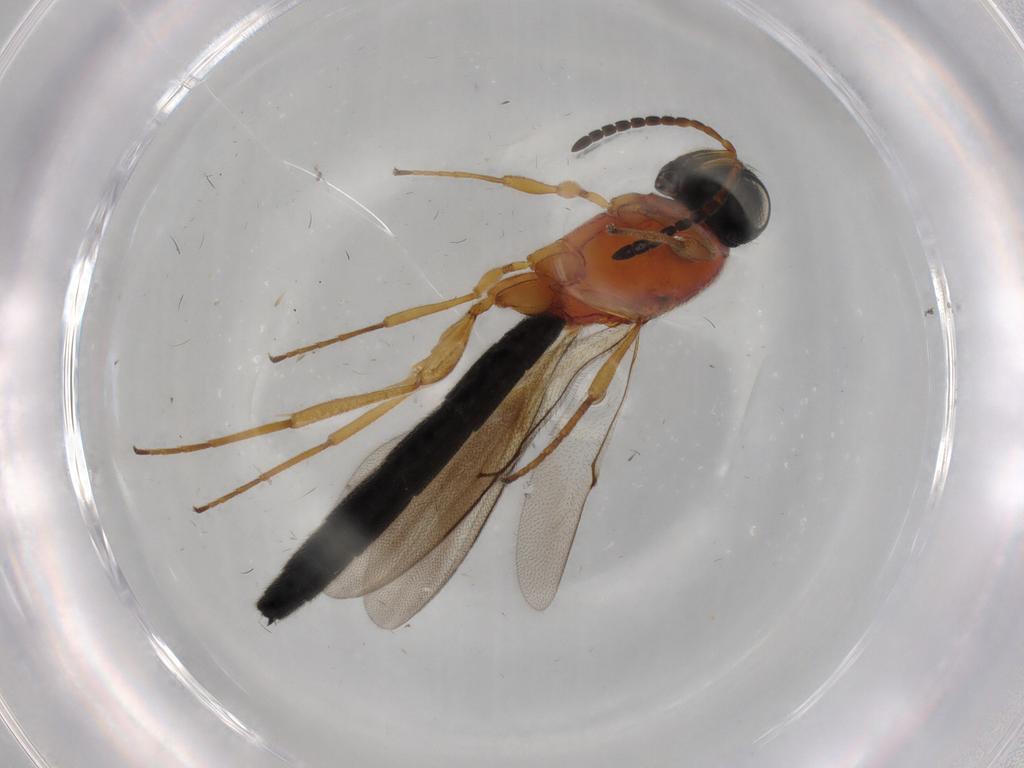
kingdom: Animalia
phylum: Arthropoda
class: Insecta
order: Hymenoptera
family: Scelionidae
